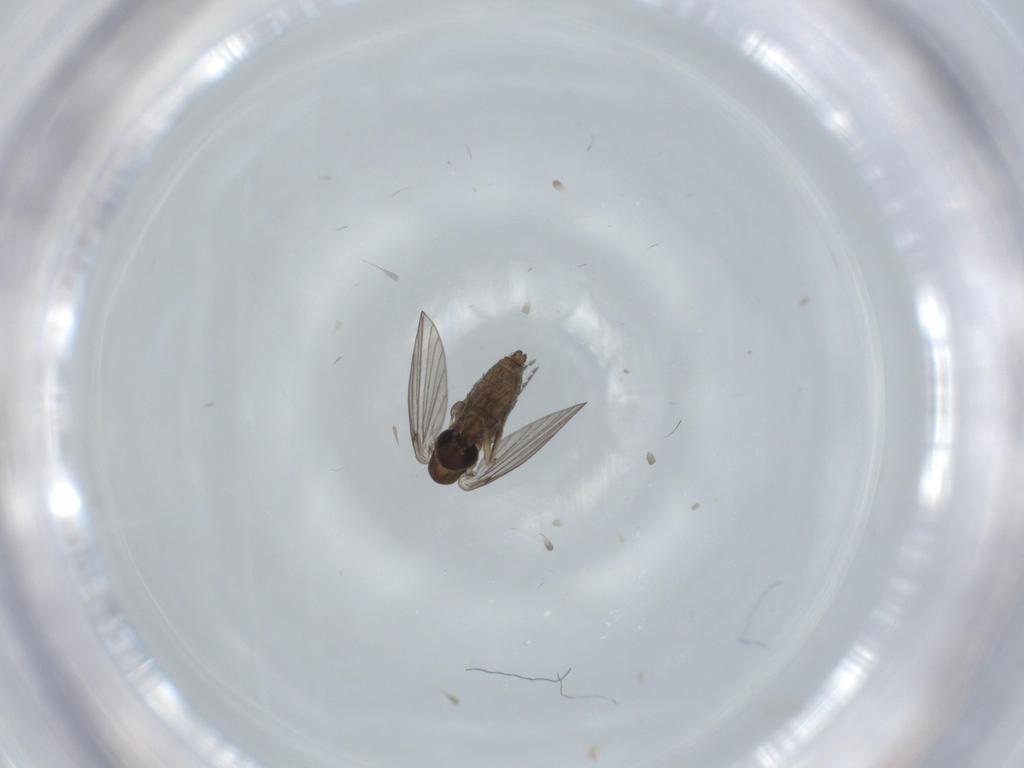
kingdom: Animalia
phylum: Arthropoda
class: Insecta
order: Diptera
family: Psychodidae
